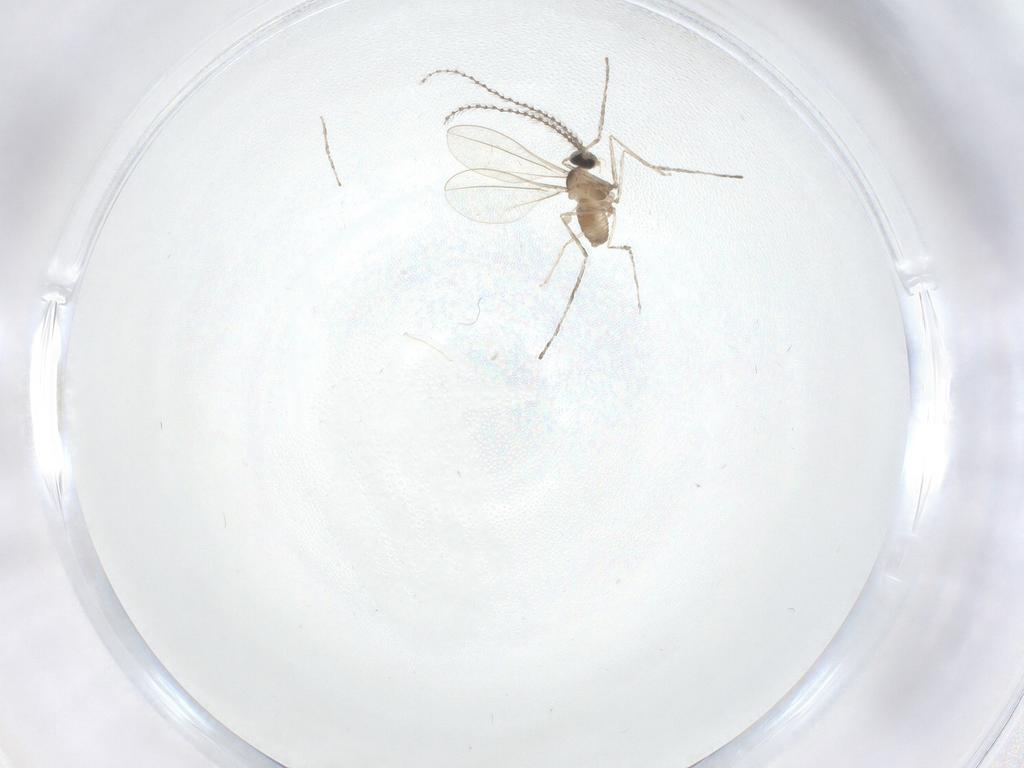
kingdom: Animalia
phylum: Arthropoda
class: Insecta
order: Diptera
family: Cecidomyiidae
